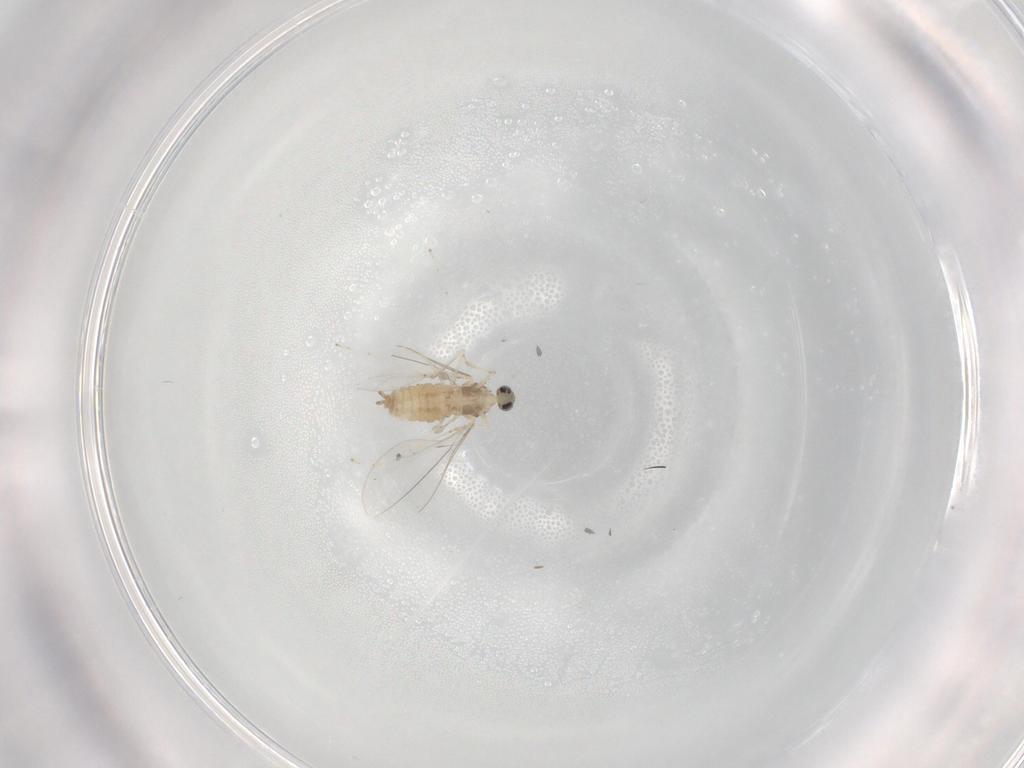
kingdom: Animalia
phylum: Arthropoda
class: Insecta
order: Diptera
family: Cecidomyiidae
